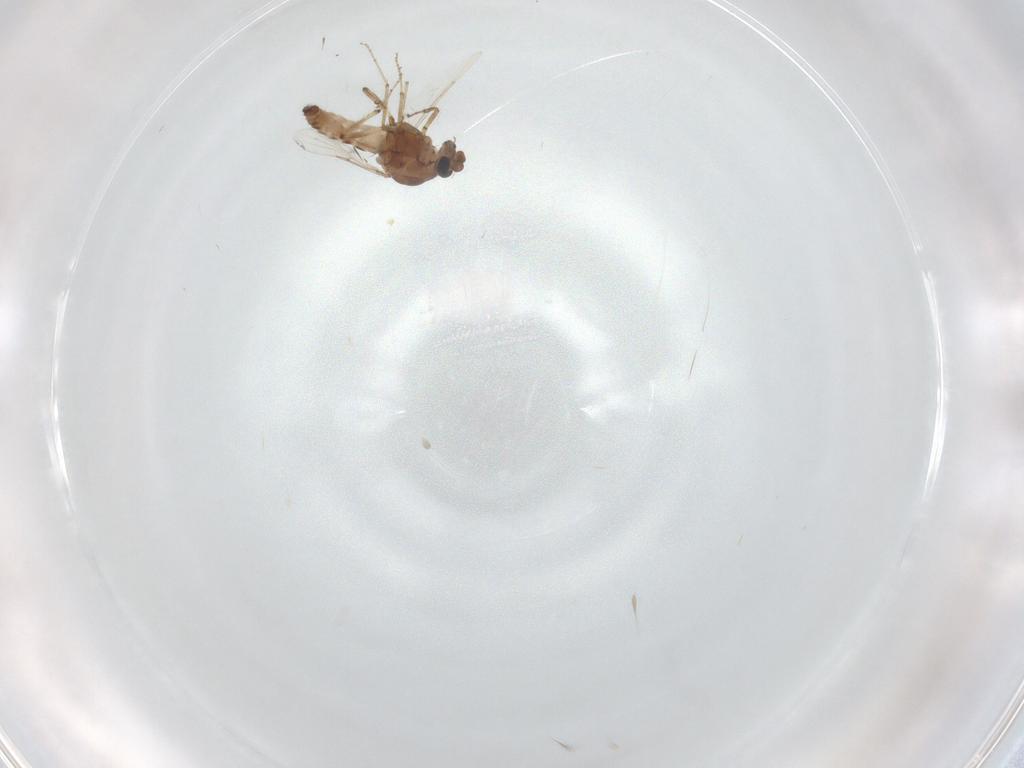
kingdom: Animalia
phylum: Arthropoda
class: Insecta
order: Diptera
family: Ceratopogonidae
